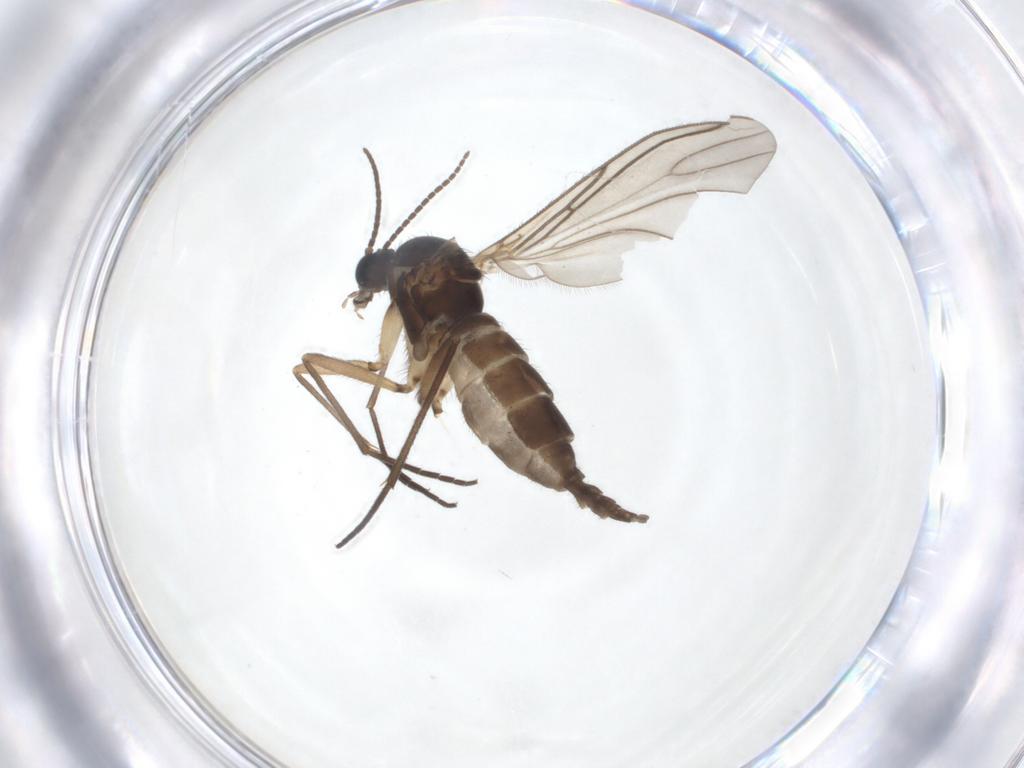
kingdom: Animalia
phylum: Arthropoda
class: Insecta
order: Diptera
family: Sciaridae
